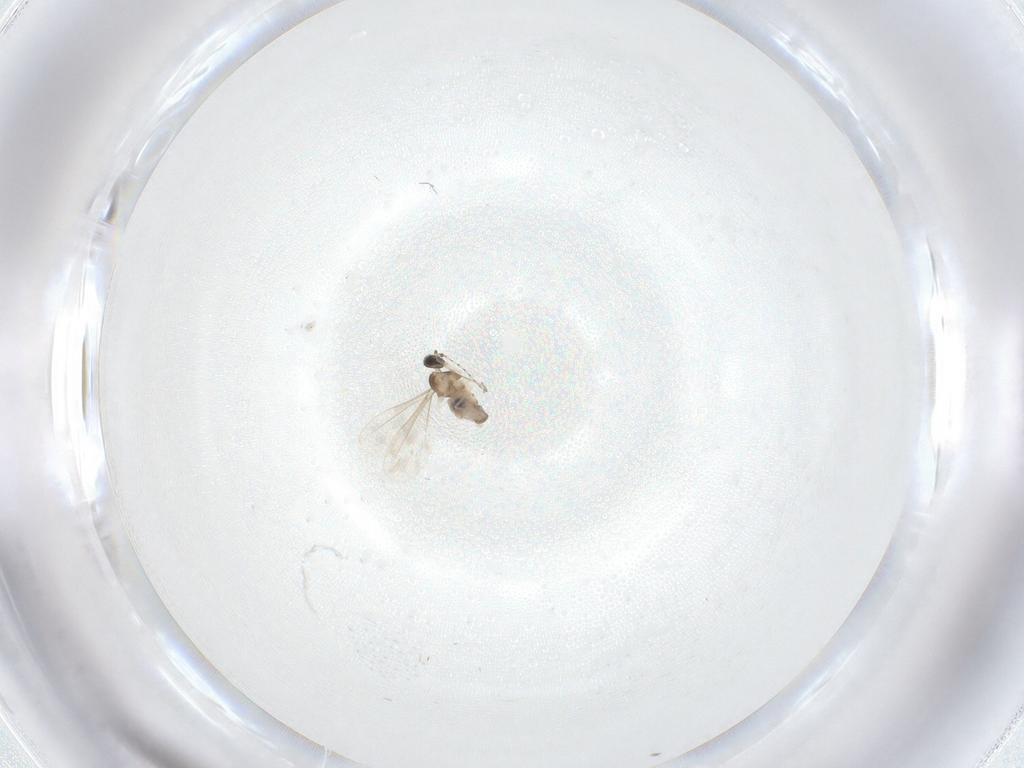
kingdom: Animalia
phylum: Arthropoda
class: Insecta
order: Diptera
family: Cecidomyiidae
